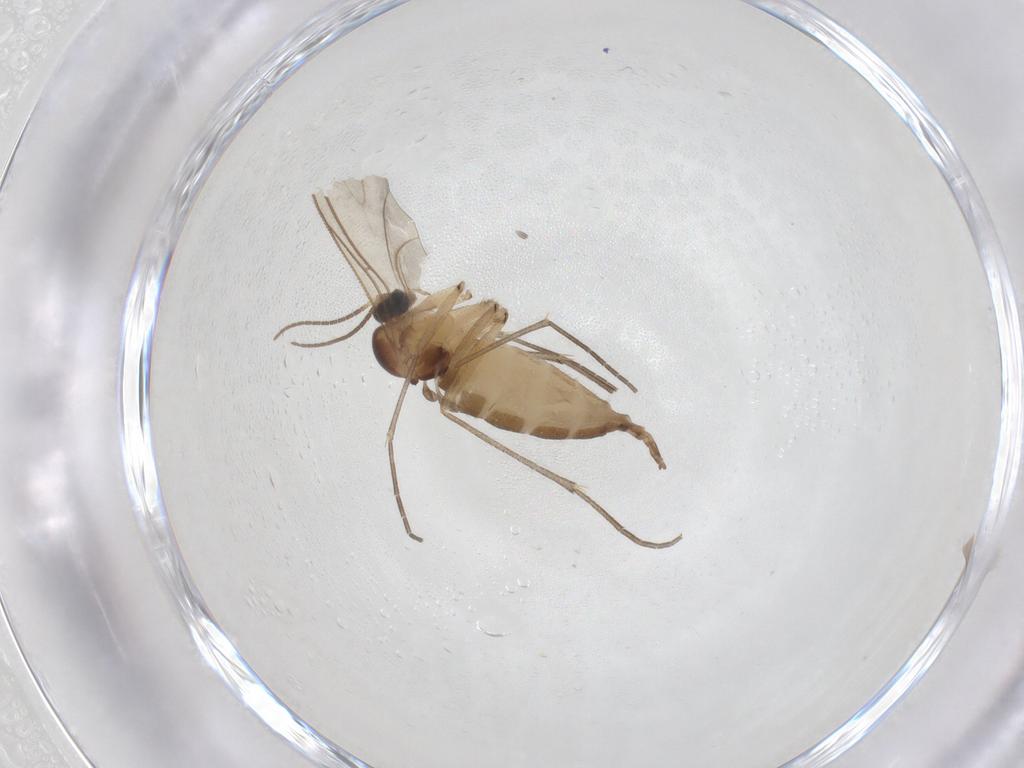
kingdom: Animalia
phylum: Arthropoda
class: Insecta
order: Diptera
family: Sciaridae
